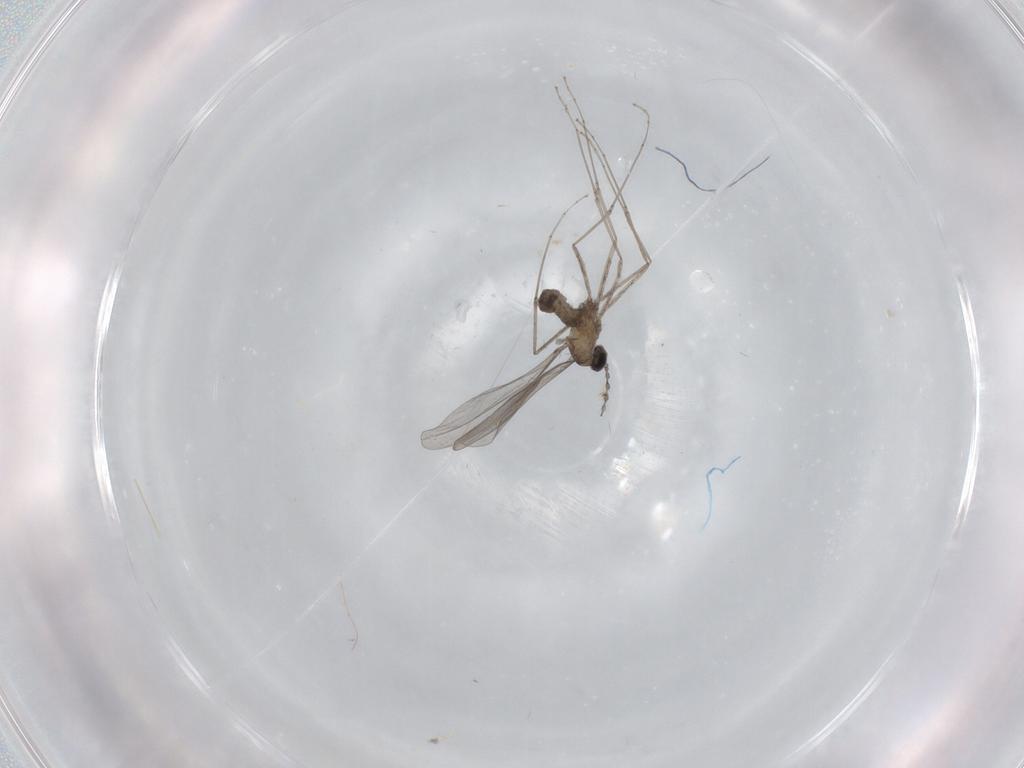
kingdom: Animalia
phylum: Arthropoda
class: Insecta
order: Diptera
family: Cecidomyiidae
